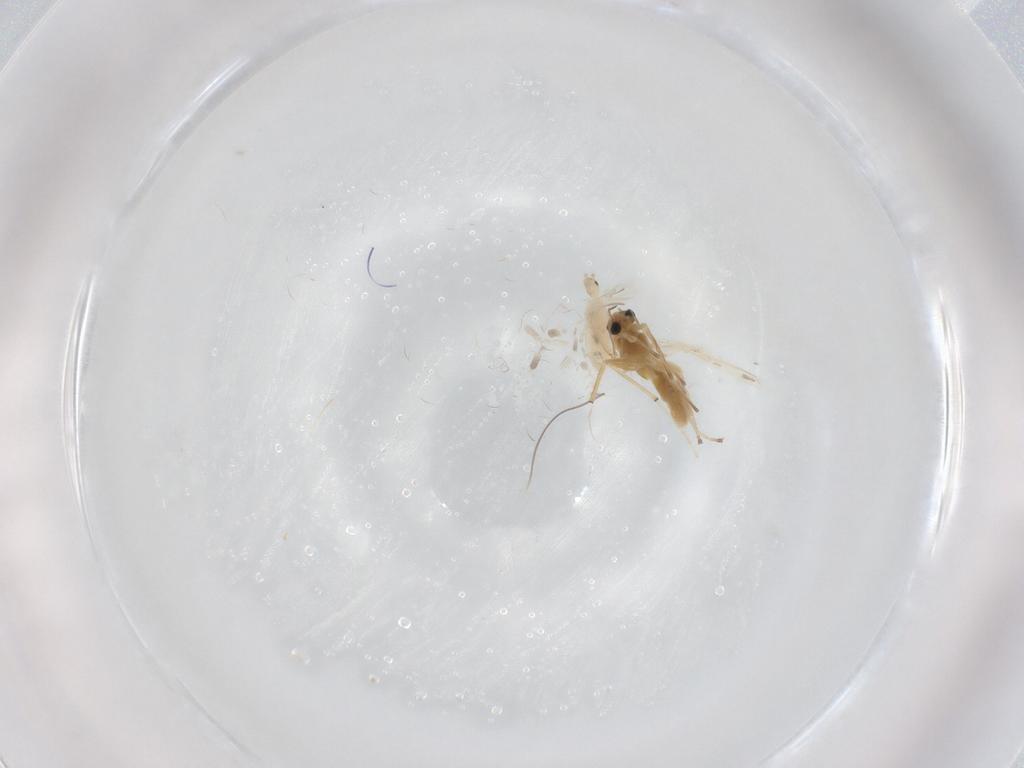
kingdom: Animalia
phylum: Arthropoda
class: Insecta
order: Diptera
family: Chironomidae
